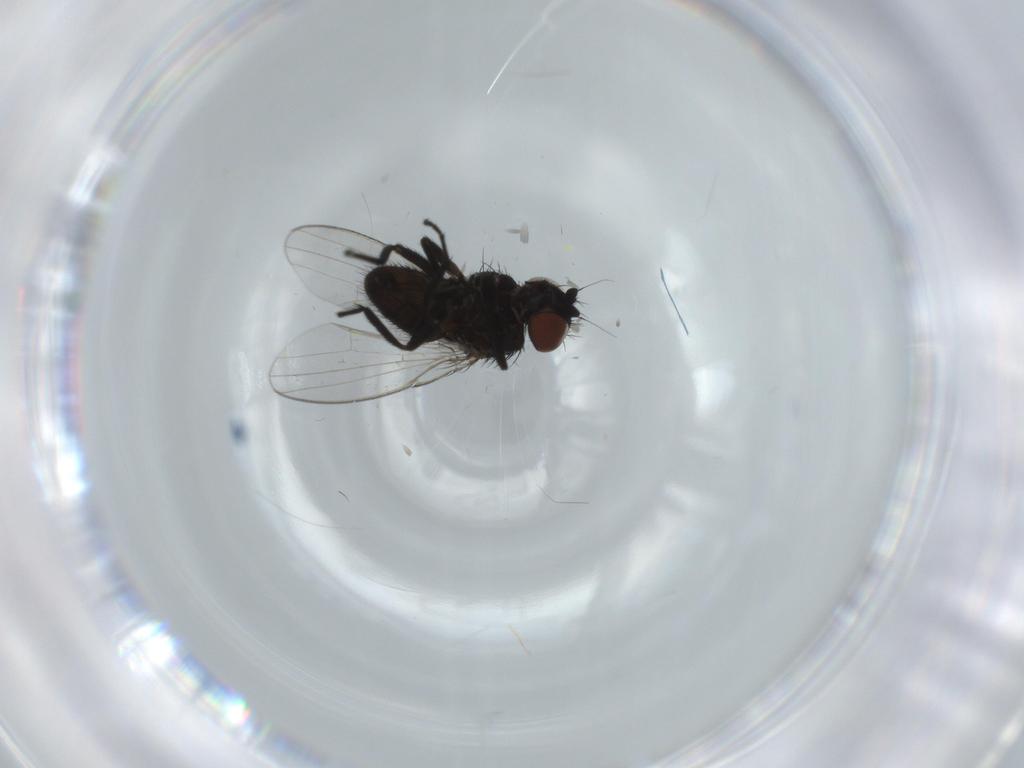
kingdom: Animalia
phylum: Arthropoda
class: Insecta
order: Diptera
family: Milichiidae
